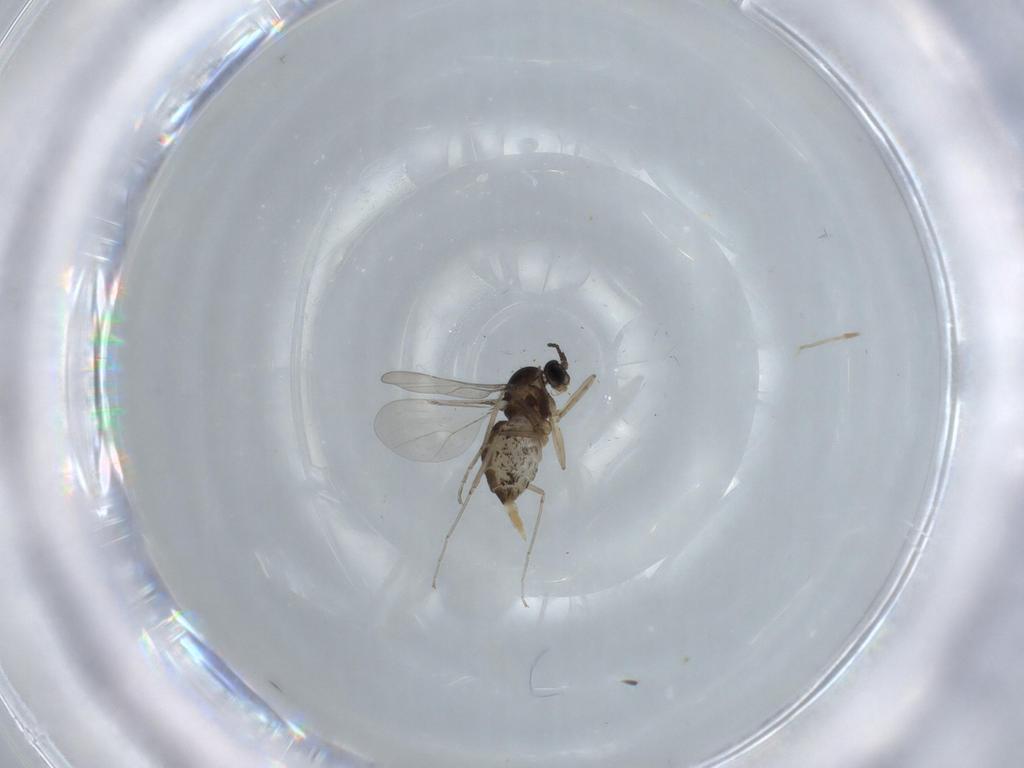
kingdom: Animalia
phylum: Arthropoda
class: Insecta
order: Diptera
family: Cecidomyiidae
